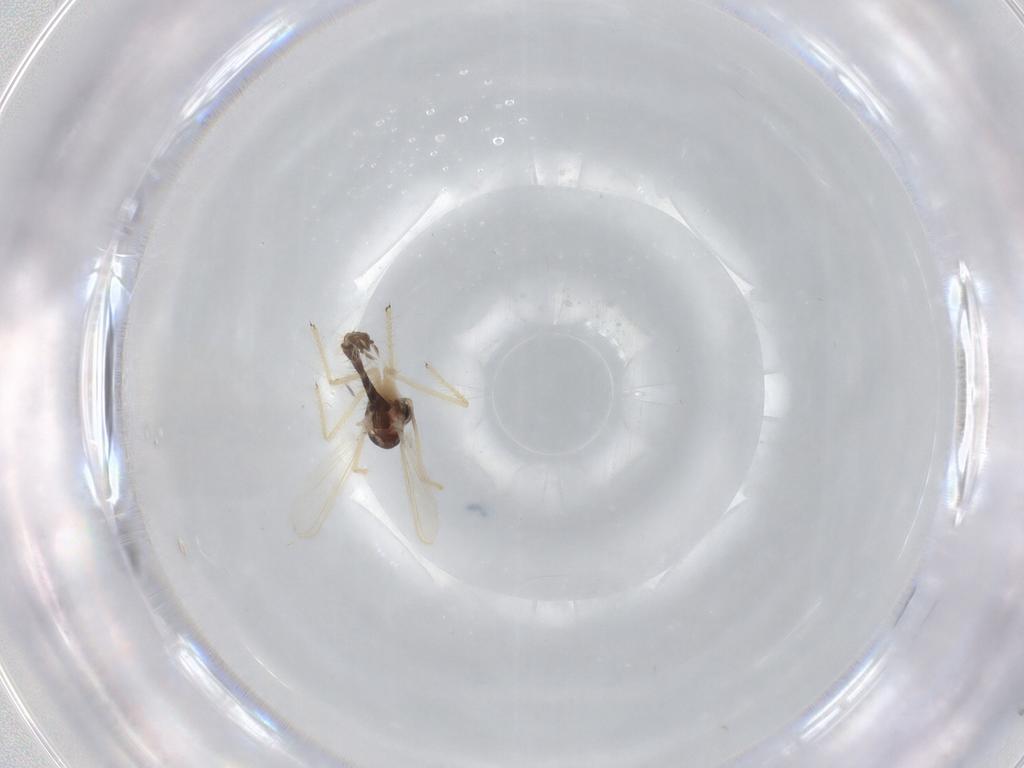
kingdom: Animalia
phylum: Arthropoda
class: Insecta
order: Diptera
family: Chironomidae
